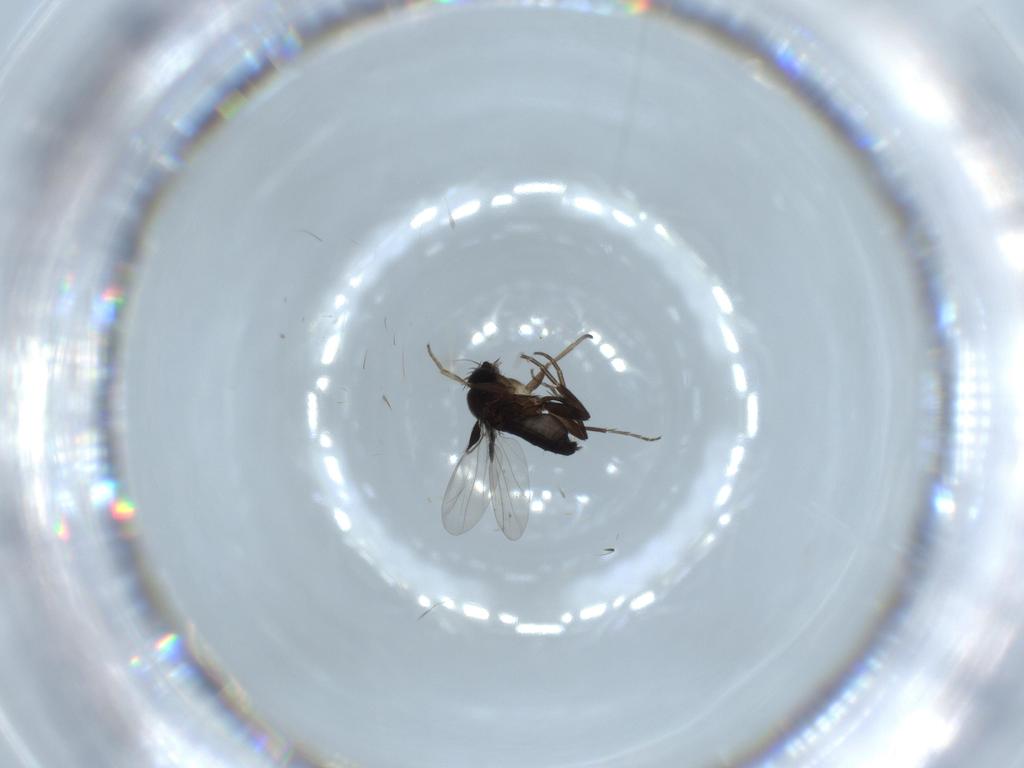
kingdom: Animalia
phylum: Arthropoda
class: Insecta
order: Diptera
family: Phoridae
